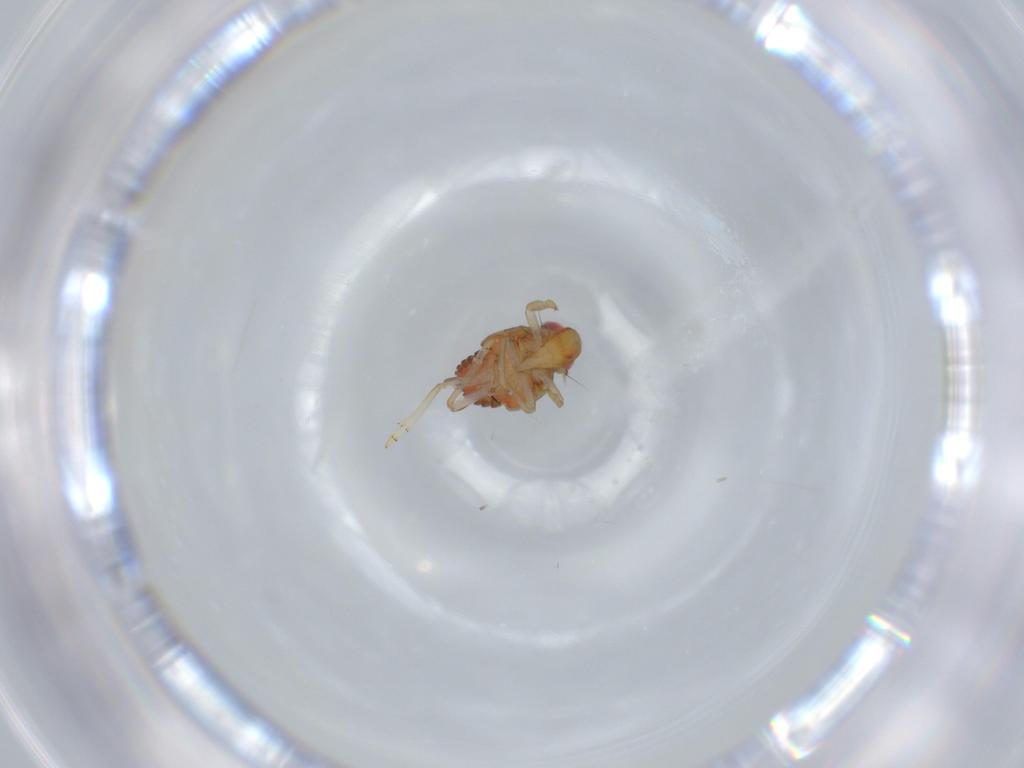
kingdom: Animalia
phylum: Arthropoda
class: Insecta
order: Hemiptera
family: Issidae
